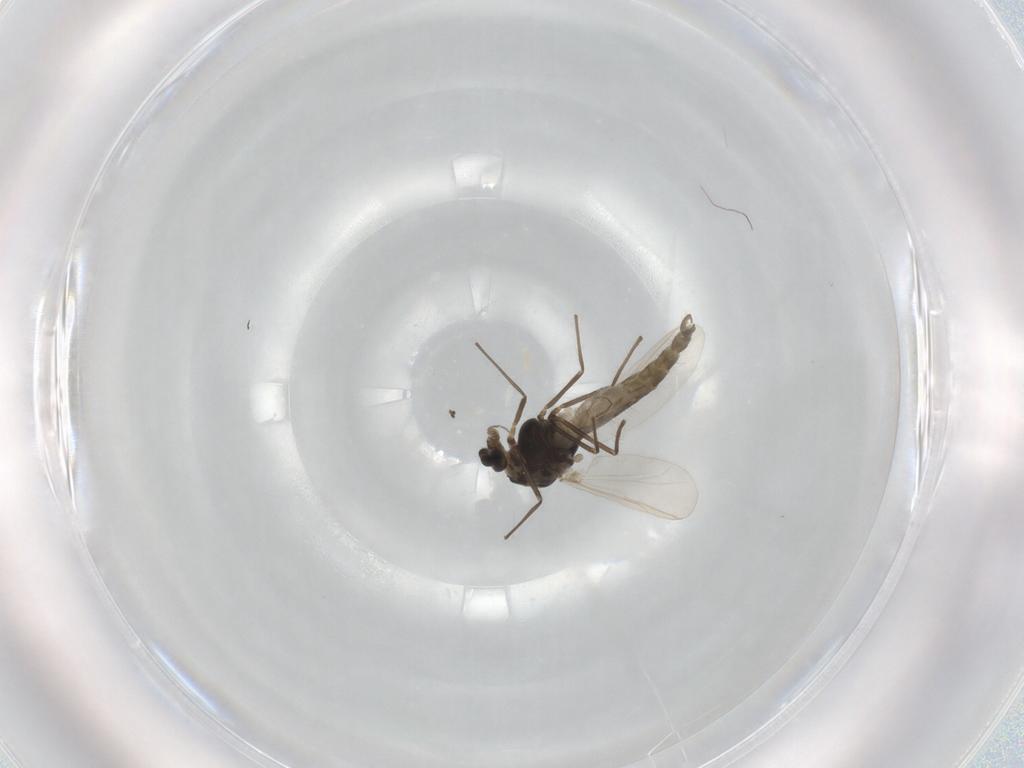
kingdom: Animalia
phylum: Arthropoda
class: Insecta
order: Diptera
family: Chironomidae
